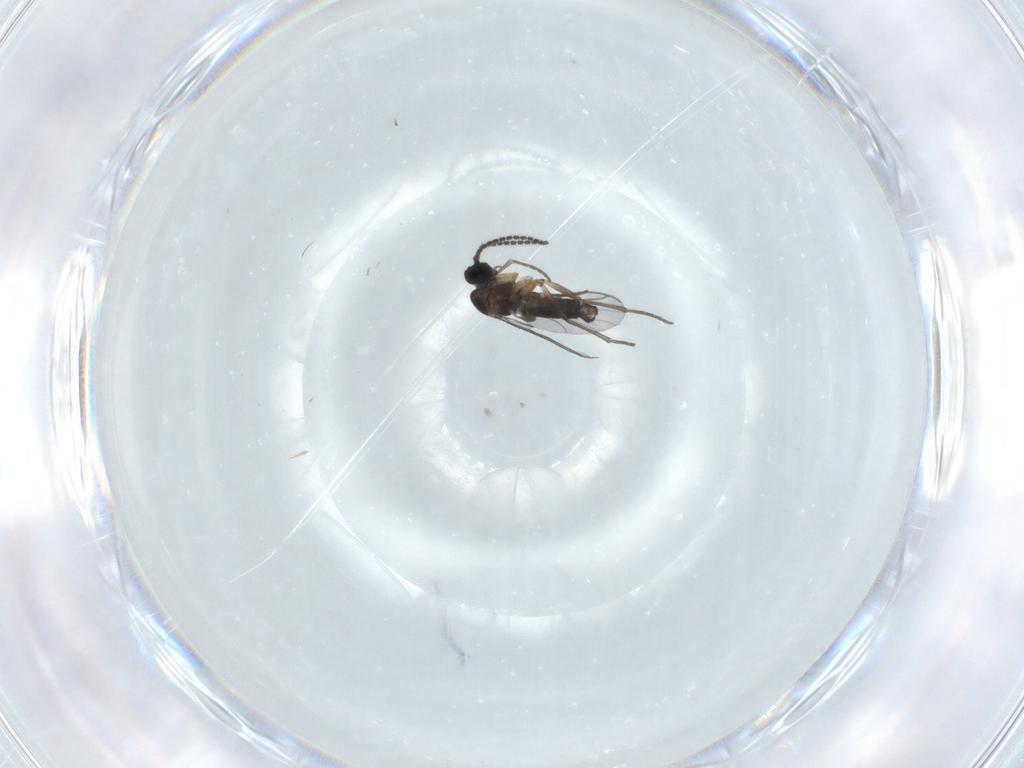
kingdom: Animalia
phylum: Arthropoda
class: Insecta
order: Diptera
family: Sciaridae
